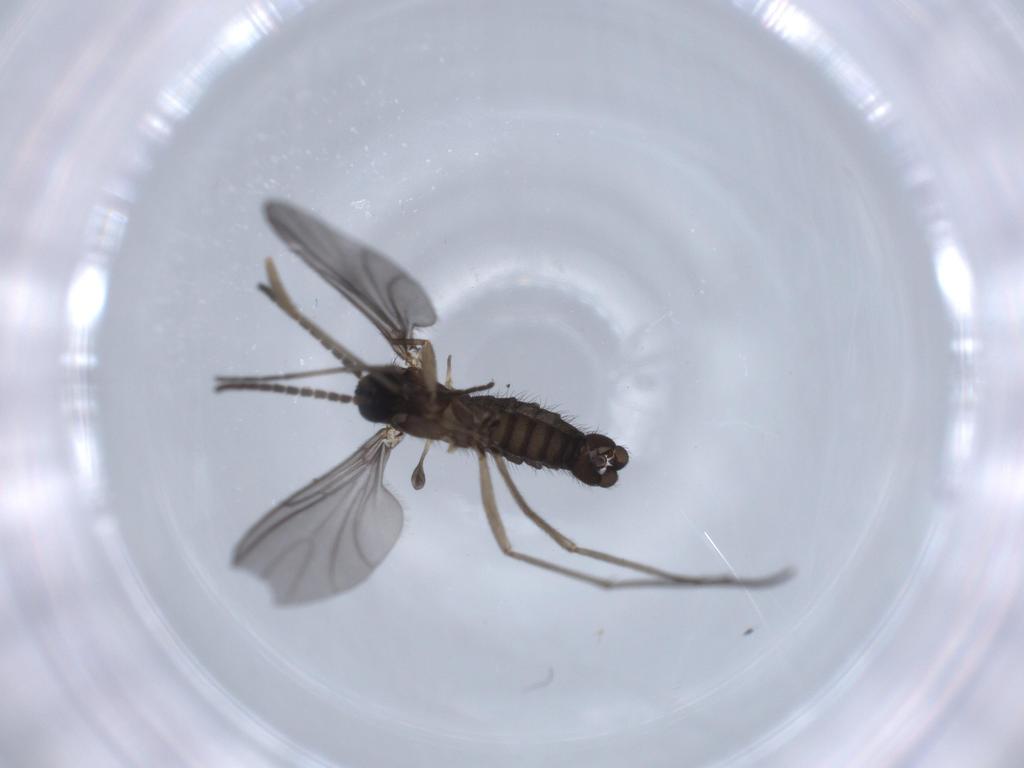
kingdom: Animalia
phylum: Arthropoda
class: Insecta
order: Diptera
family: Sciaridae
